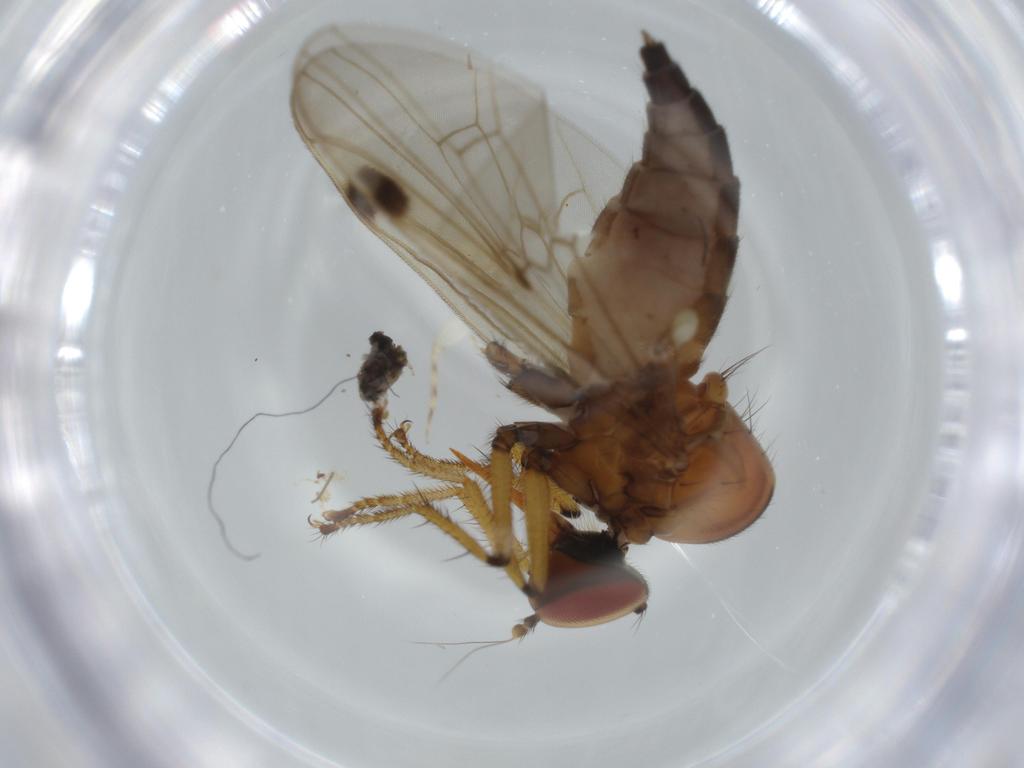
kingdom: Animalia
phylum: Arthropoda
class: Insecta
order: Diptera
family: Hybotidae
